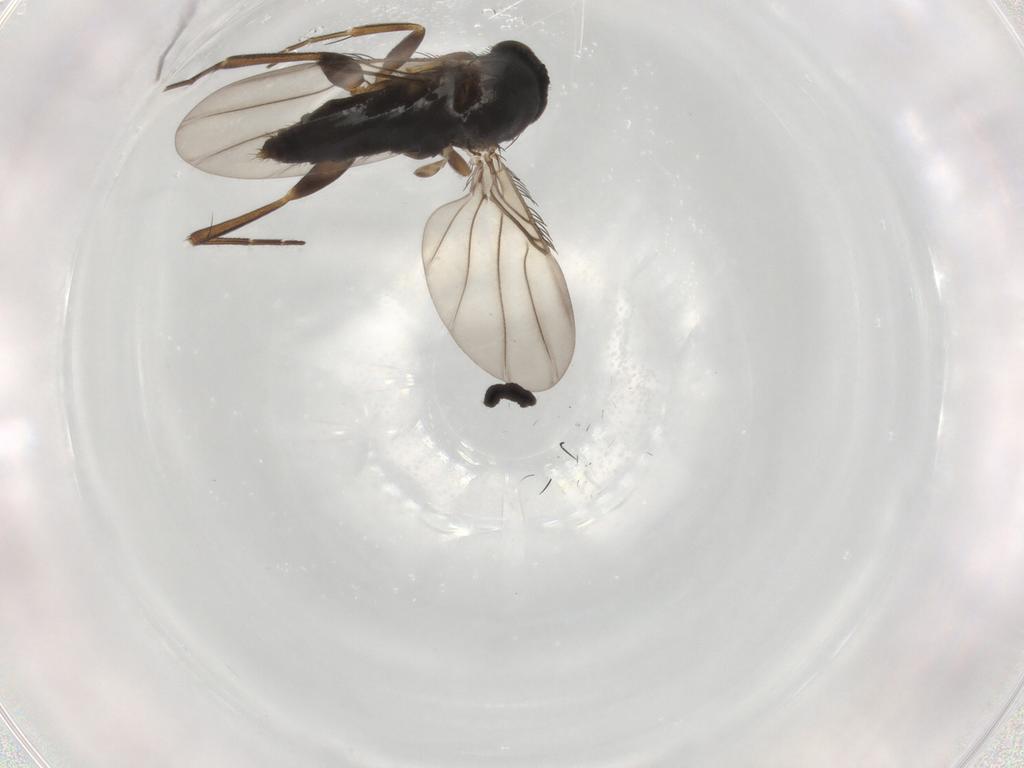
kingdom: Animalia
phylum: Arthropoda
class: Insecta
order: Diptera
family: Phoridae
